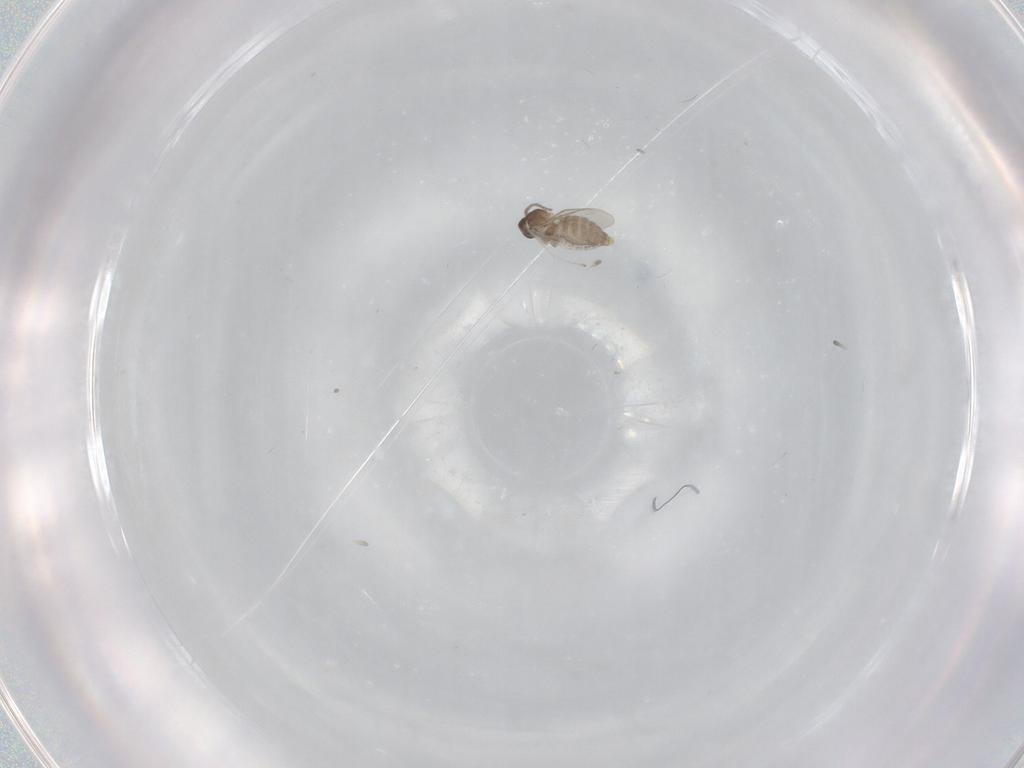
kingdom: Animalia
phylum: Arthropoda
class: Insecta
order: Diptera
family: Cecidomyiidae
